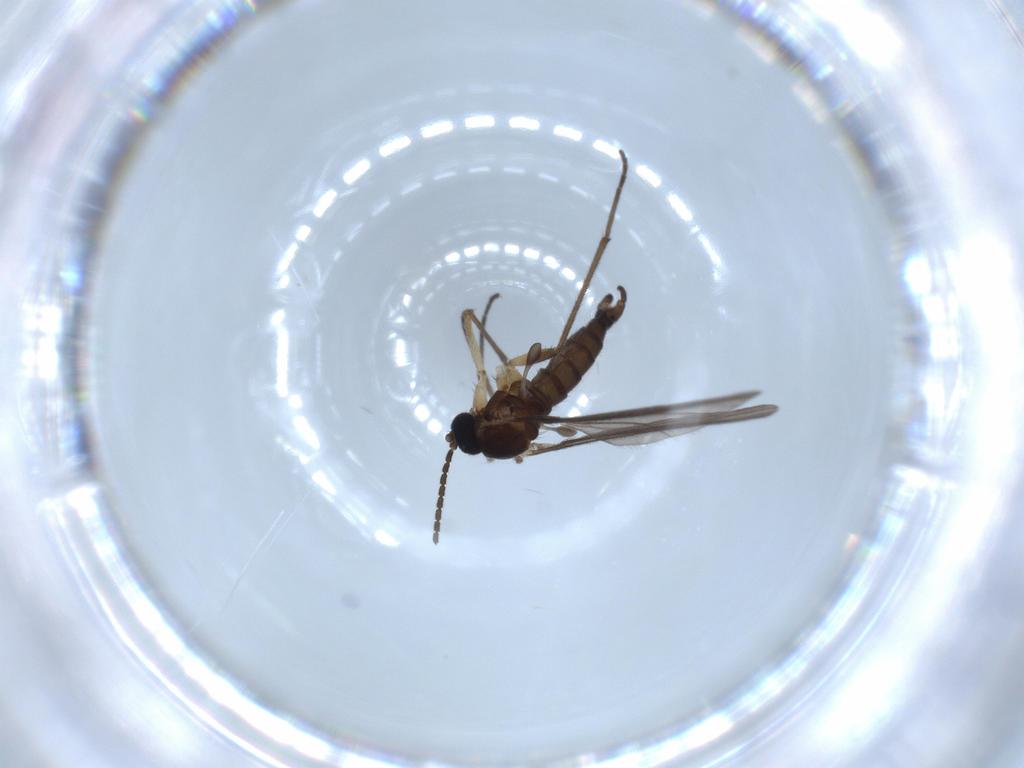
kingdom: Animalia
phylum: Arthropoda
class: Insecta
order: Diptera
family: Sciaridae
